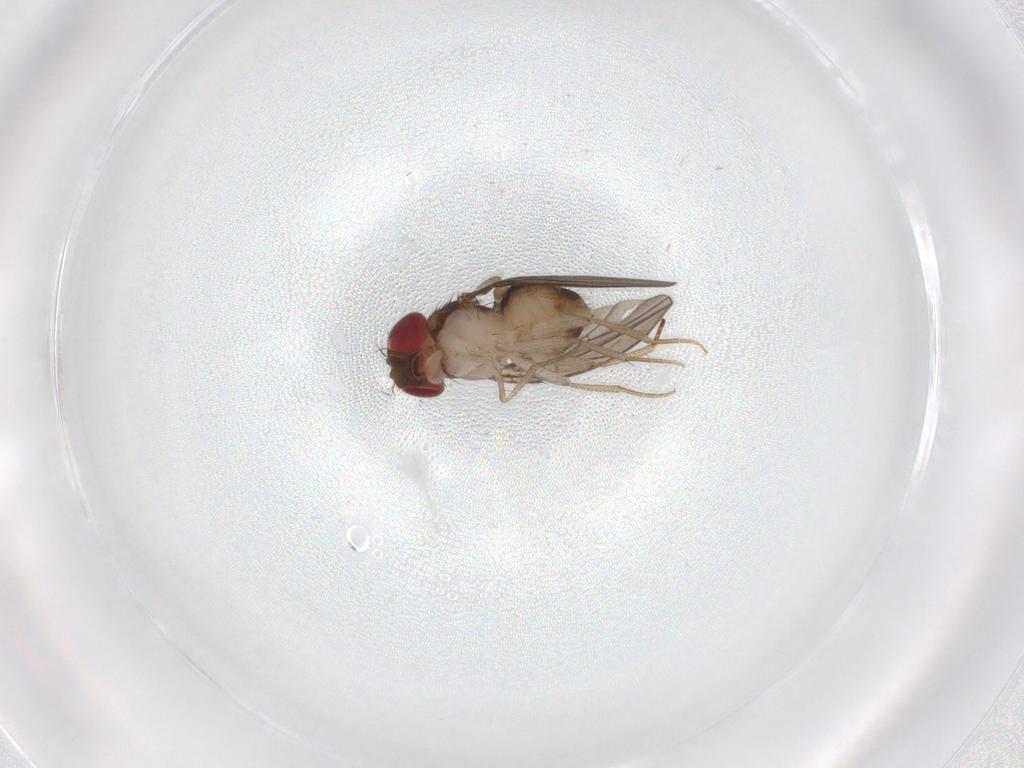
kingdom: Animalia
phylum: Arthropoda
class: Insecta
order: Diptera
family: Drosophilidae
